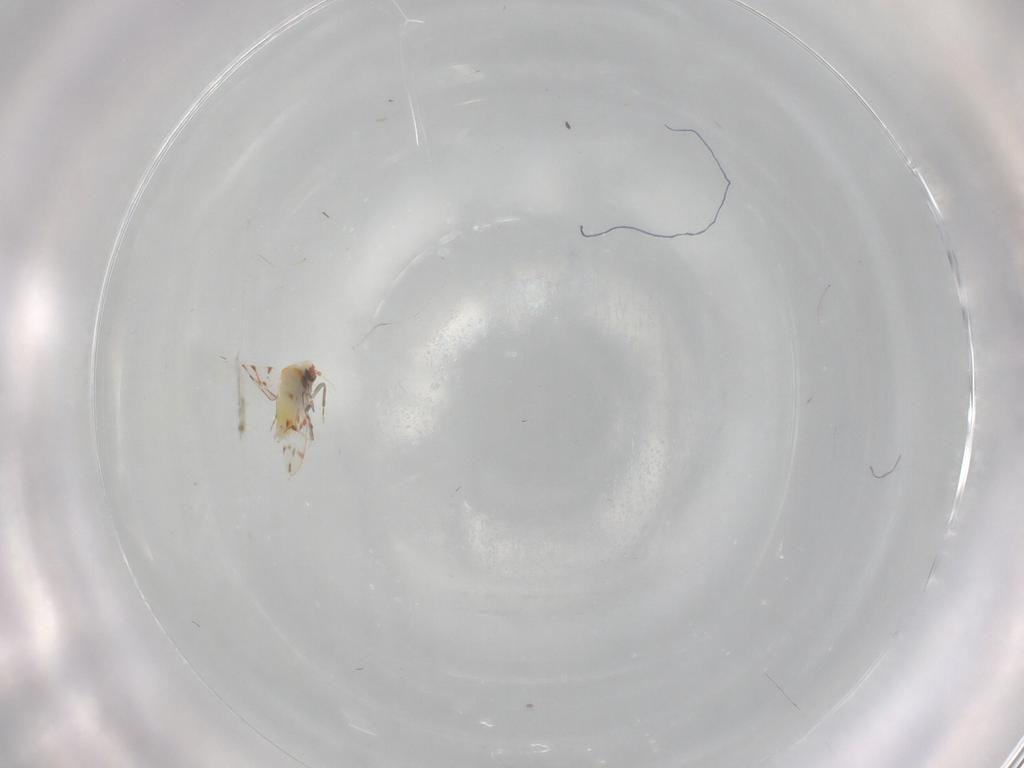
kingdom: Animalia
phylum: Arthropoda
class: Insecta
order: Hemiptera
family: Aleyrodidae
